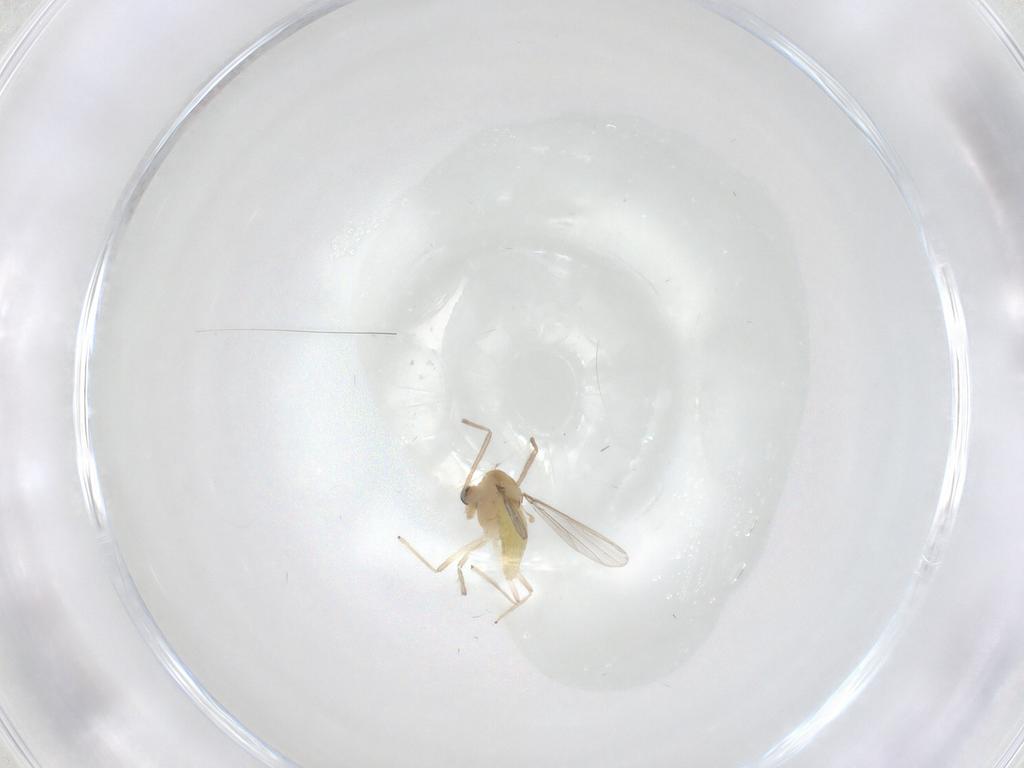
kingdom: Animalia
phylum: Arthropoda
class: Insecta
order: Diptera
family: Chironomidae
